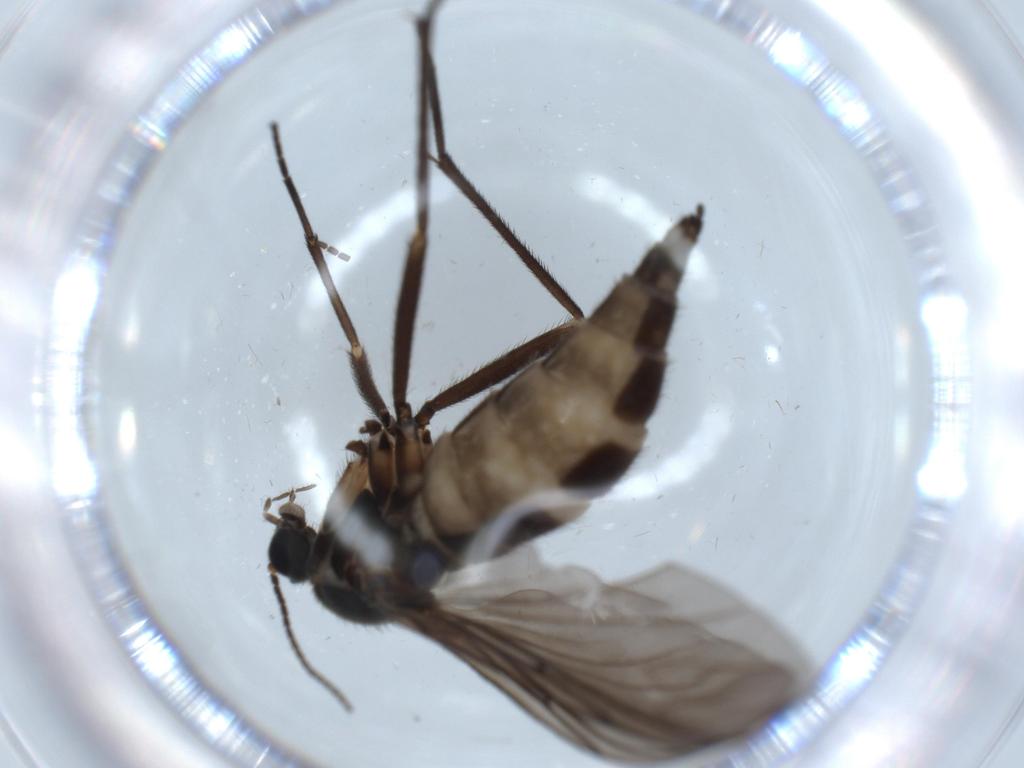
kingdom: Animalia
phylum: Arthropoda
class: Insecta
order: Diptera
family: Sciaridae
